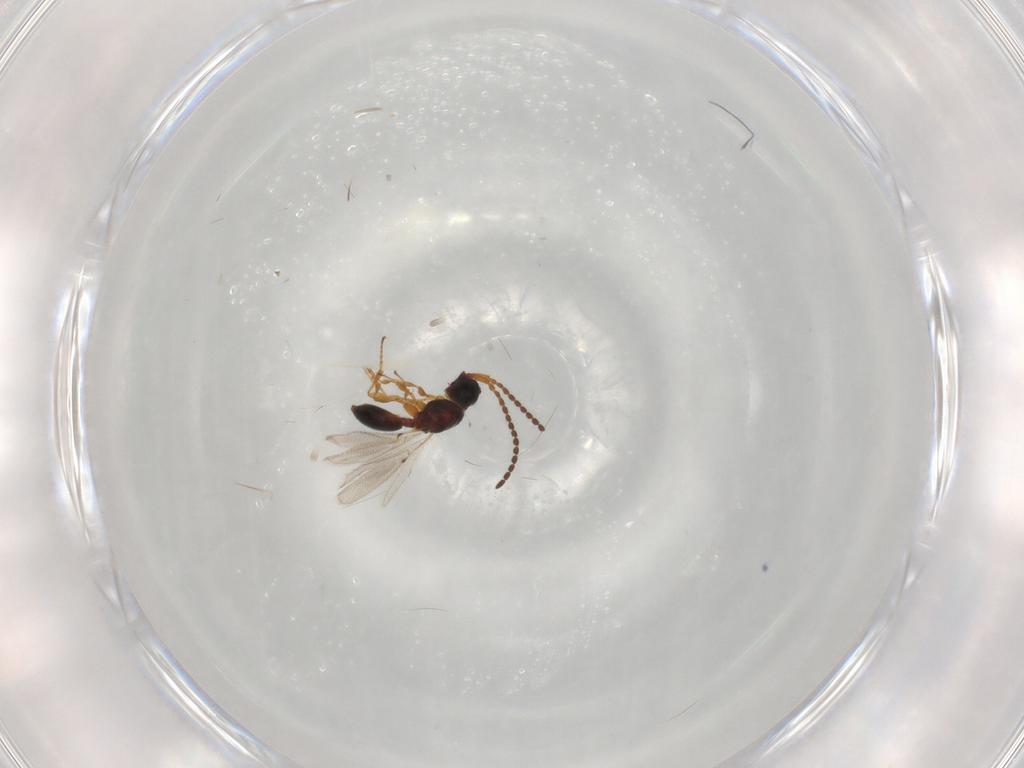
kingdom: Animalia
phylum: Arthropoda
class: Insecta
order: Hymenoptera
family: Diapriidae
